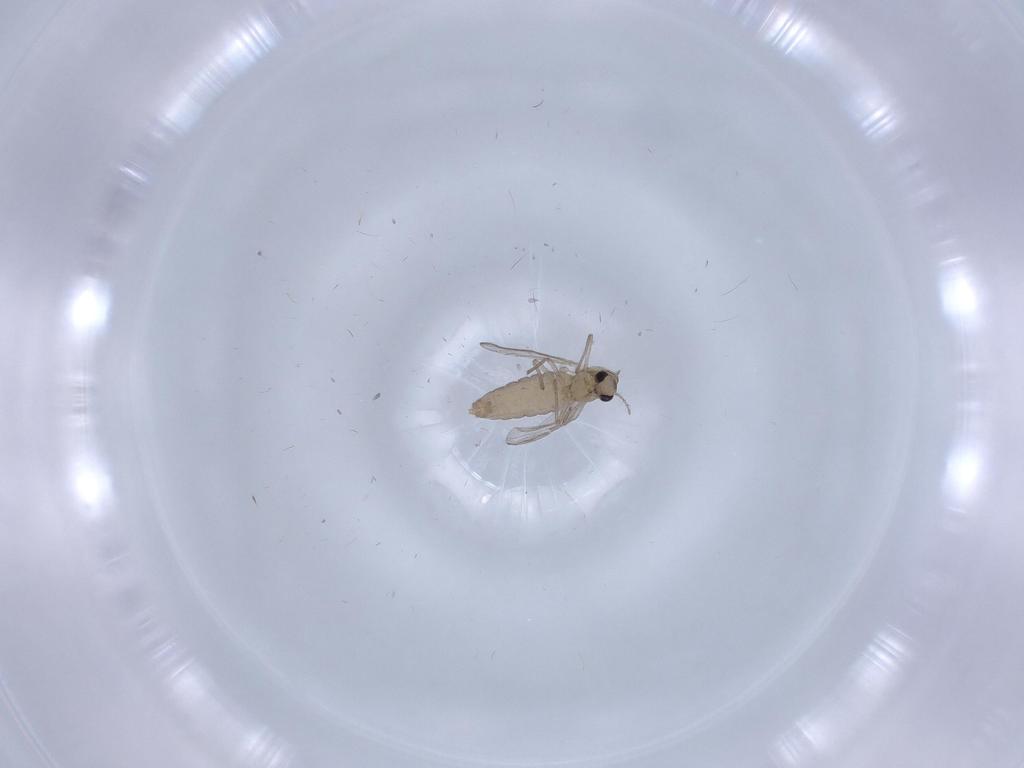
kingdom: Animalia
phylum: Arthropoda
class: Insecta
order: Diptera
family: Chironomidae
